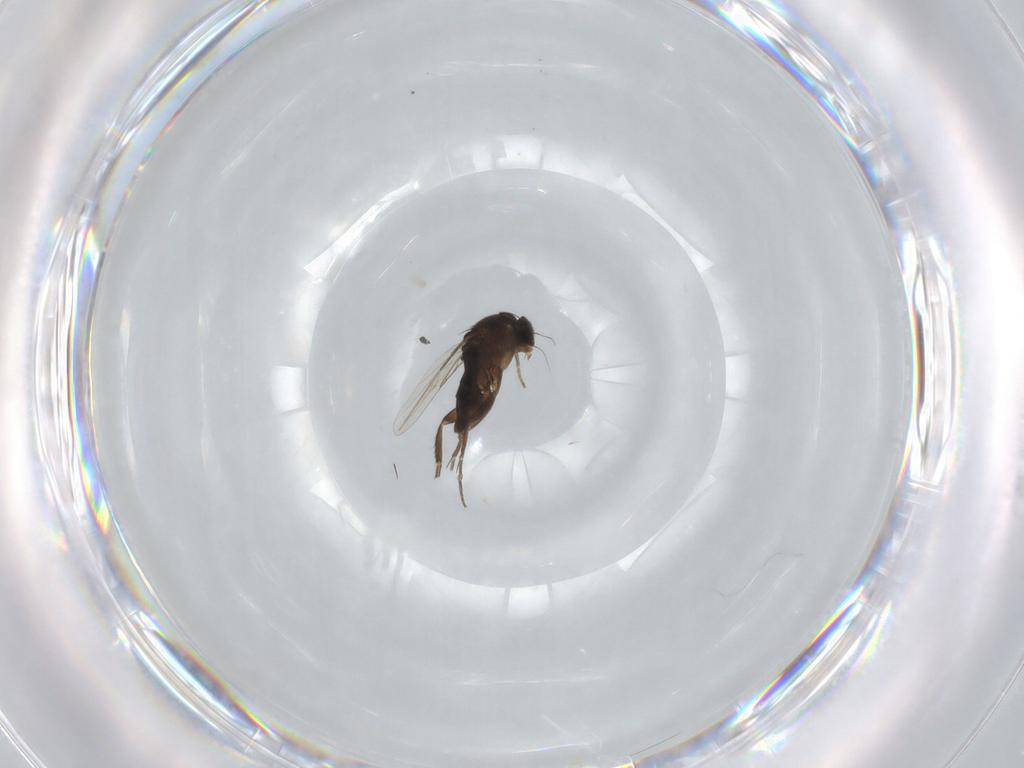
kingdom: Animalia
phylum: Arthropoda
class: Insecta
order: Diptera
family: Phoridae
